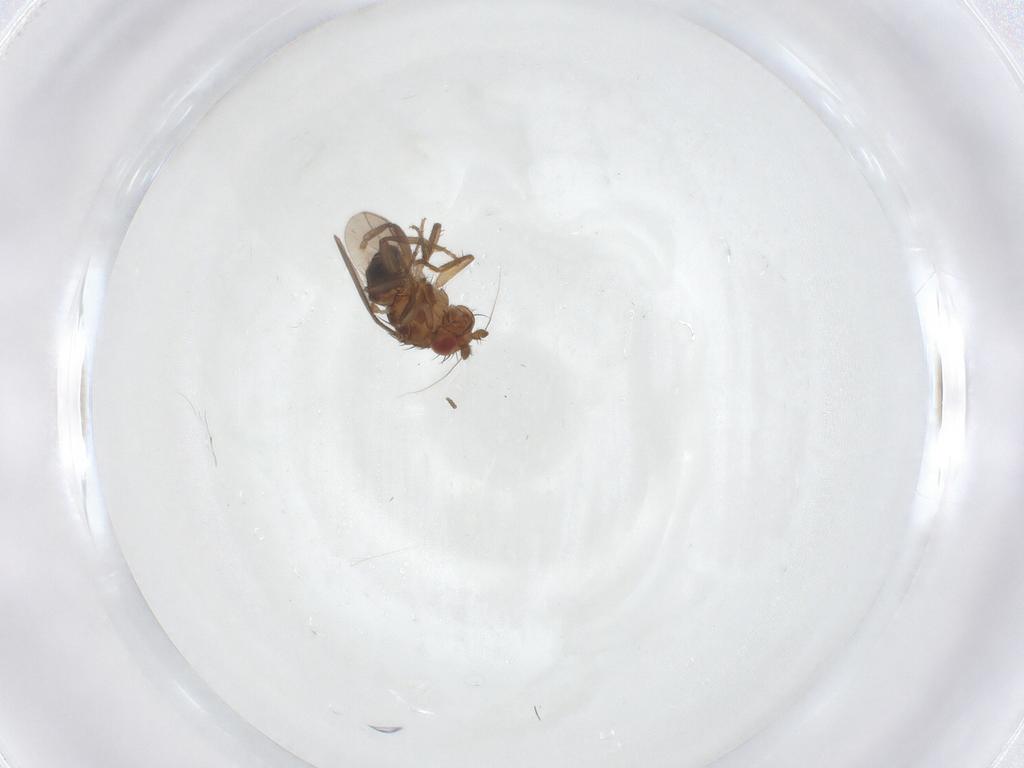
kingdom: Animalia
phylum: Arthropoda
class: Insecta
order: Diptera
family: Sphaeroceridae
